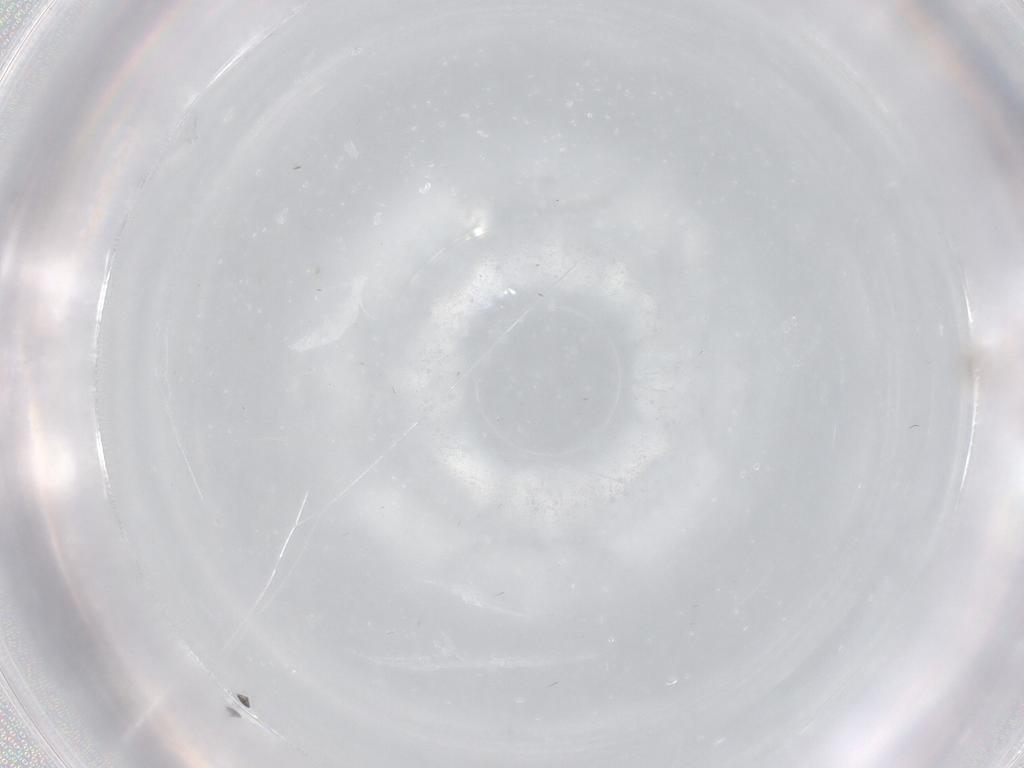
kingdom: Animalia
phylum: Arthropoda
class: Insecta
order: Diptera
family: Cecidomyiidae
